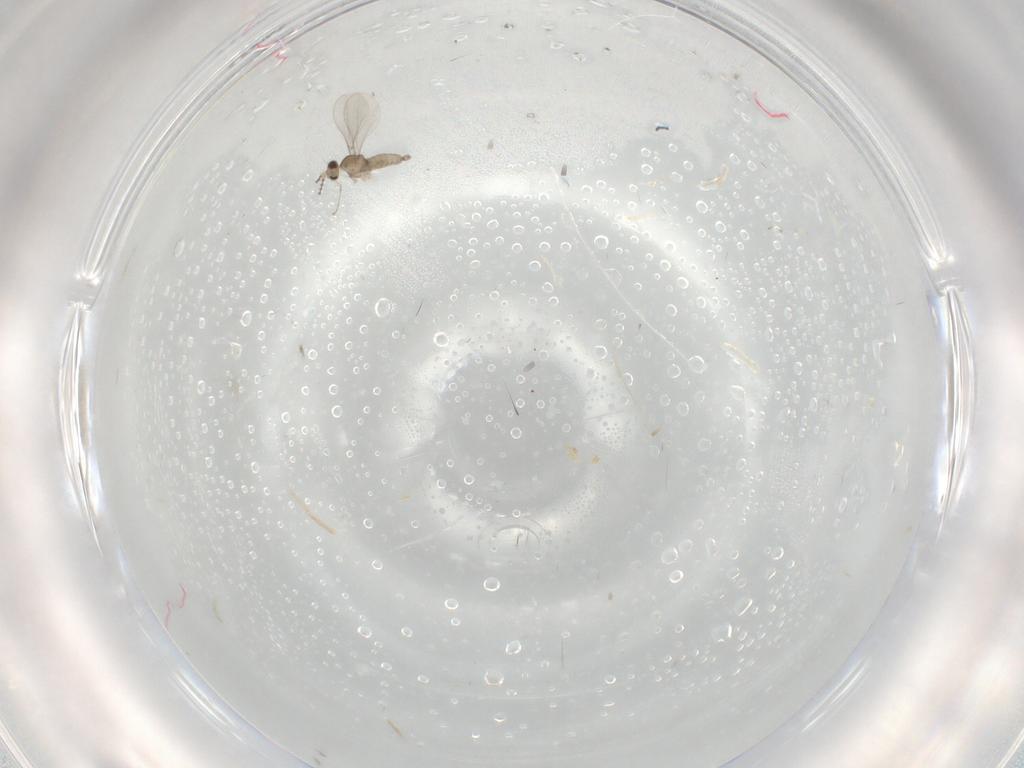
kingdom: Animalia
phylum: Arthropoda
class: Insecta
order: Diptera
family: Cecidomyiidae
